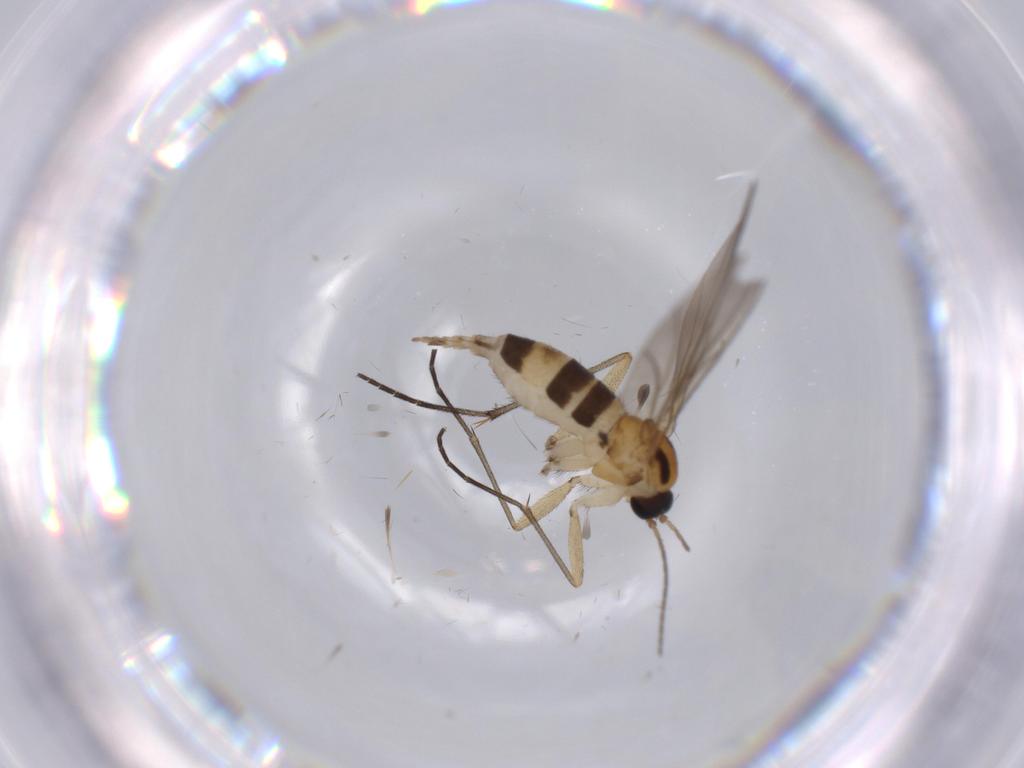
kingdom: Animalia
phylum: Arthropoda
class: Insecta
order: Diptera
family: Sciaridae
